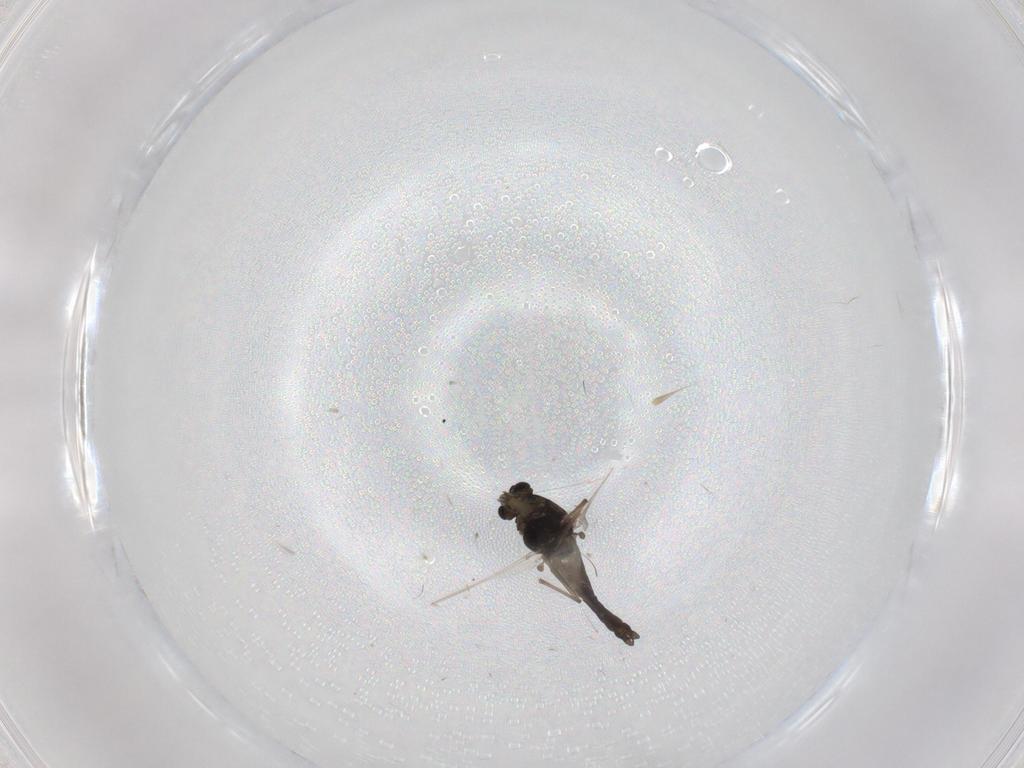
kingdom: Animalia
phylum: Arthropoda
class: Insecta
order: Diptera
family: Chironomidae
